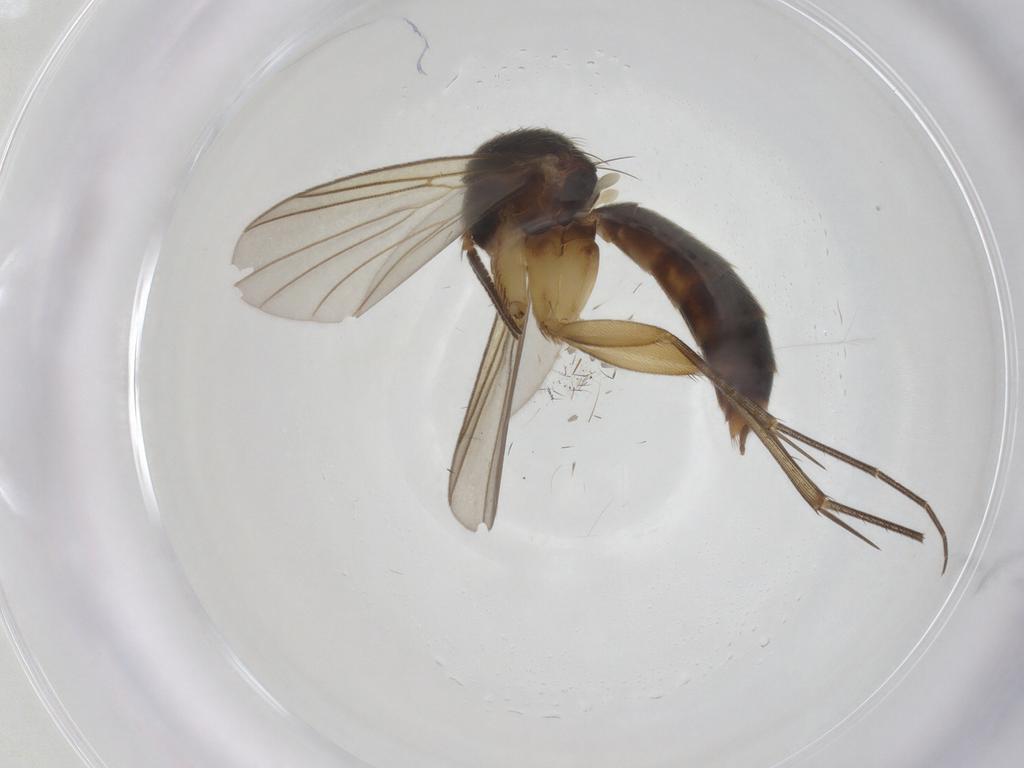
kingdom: Animalia
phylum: Arthropoda
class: Insecta
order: Diptera
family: Mycetophilidae
